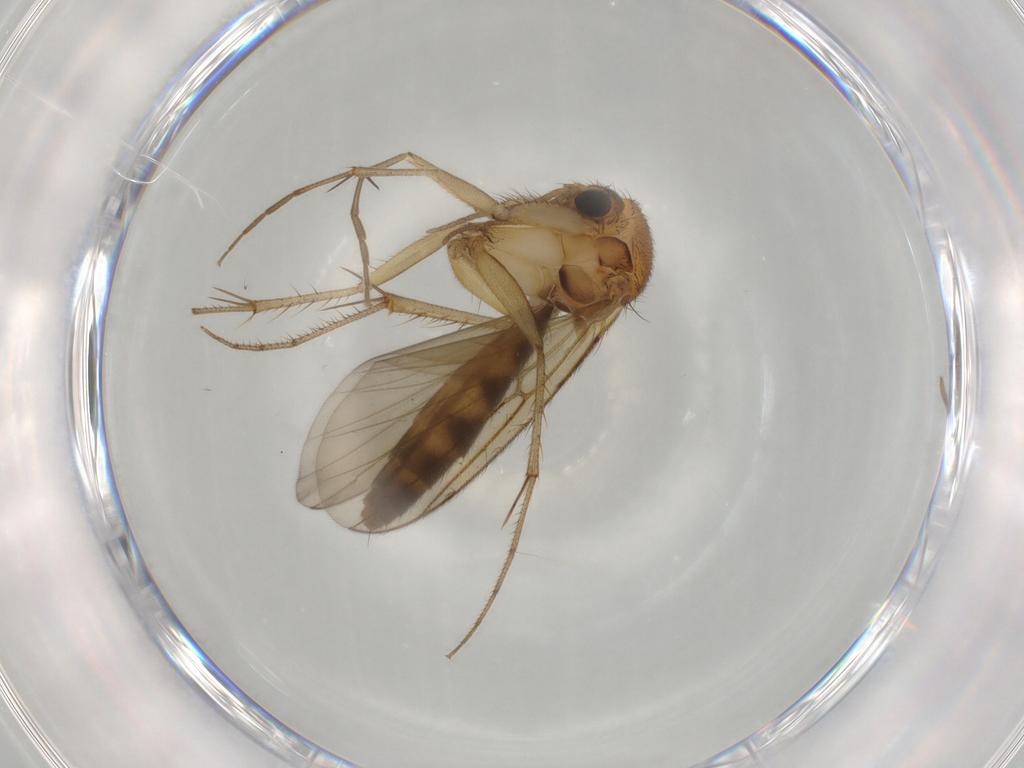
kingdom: Animalia
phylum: Arthropoda
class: Insecta
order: Diptera
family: Mycetophilidae
